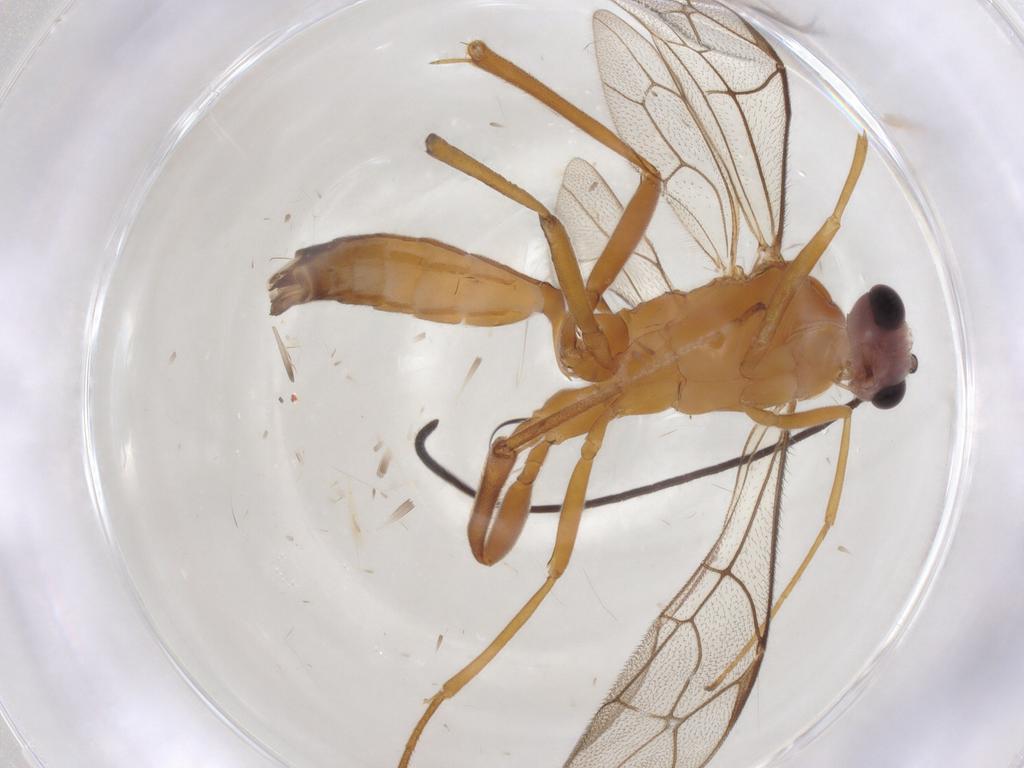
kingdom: Animalia
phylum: Arthropoda
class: Insecta
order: Hymenoptera
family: Ichneumonidae
